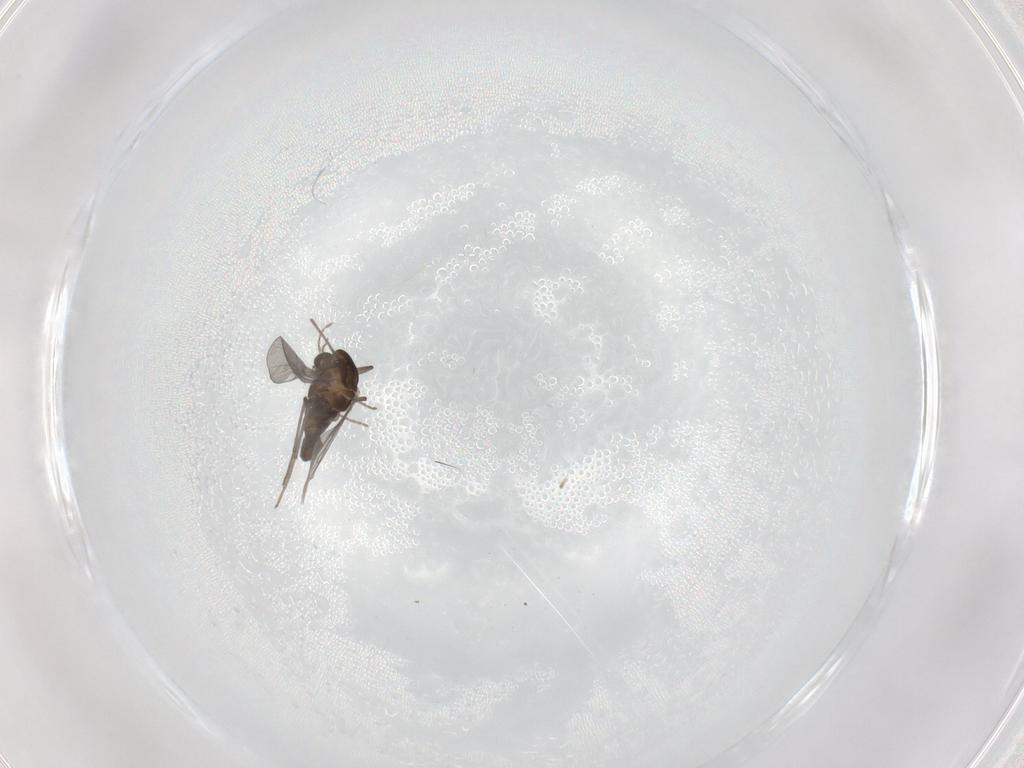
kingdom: Animalia
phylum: Arthropoda
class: Insecta
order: Diptera
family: Chironomidae
